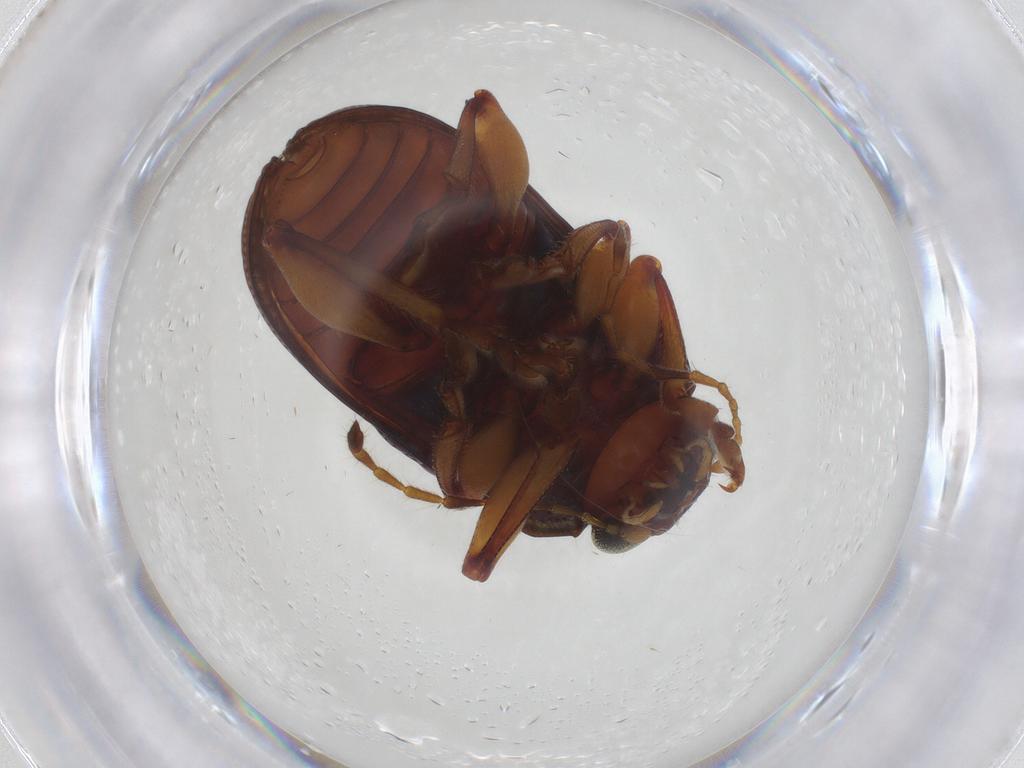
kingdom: Animalia
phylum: Arthropoda
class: Insecta
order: Coleoptera
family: Chrysomelidae
